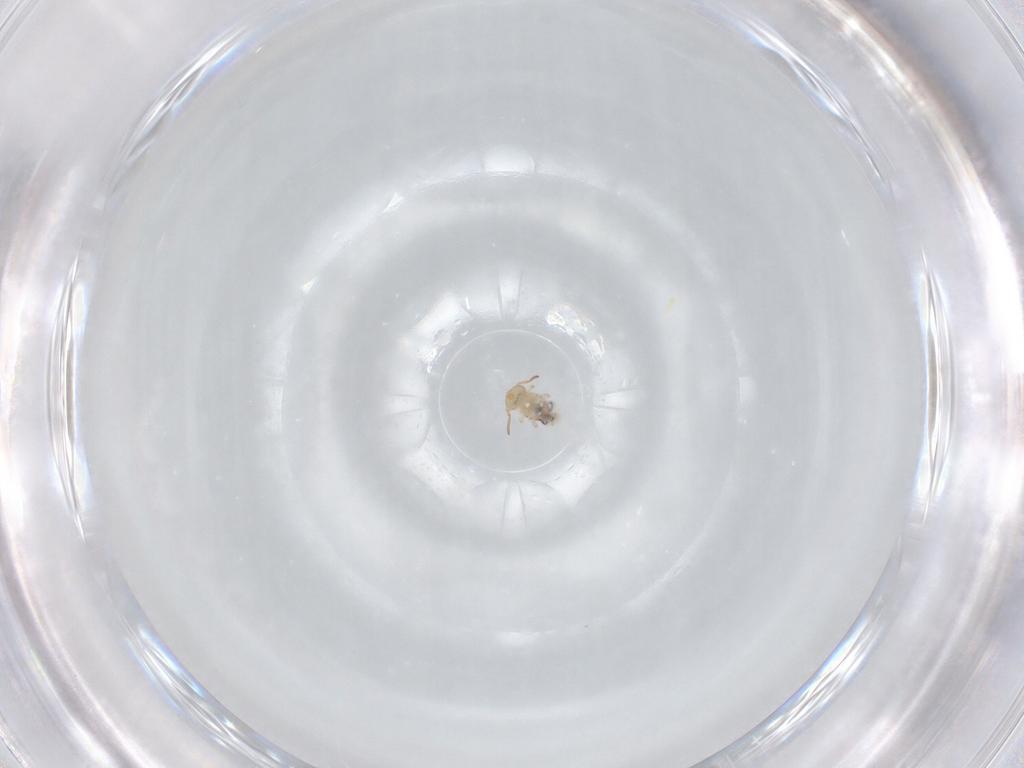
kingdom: Animalia
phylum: Arthropoda
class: Collembola
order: Symphypleona
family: Bourletiellidae
